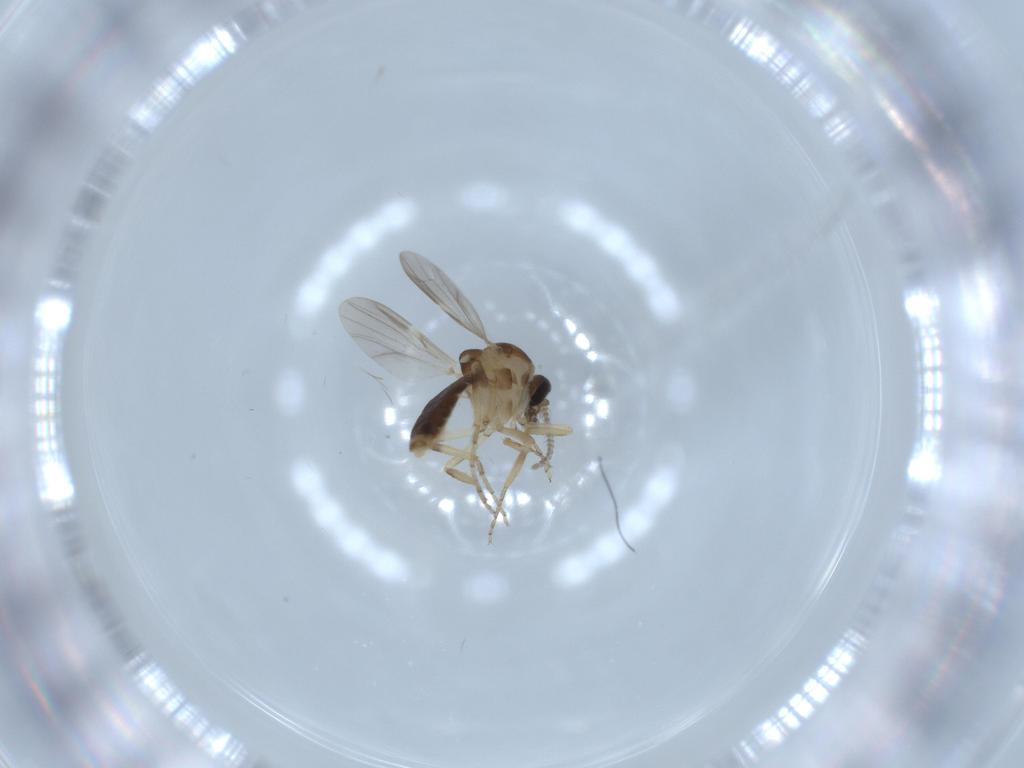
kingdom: Animalia
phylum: Arthropoda
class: Insecta
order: Diptera
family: Ceratopogonidae
